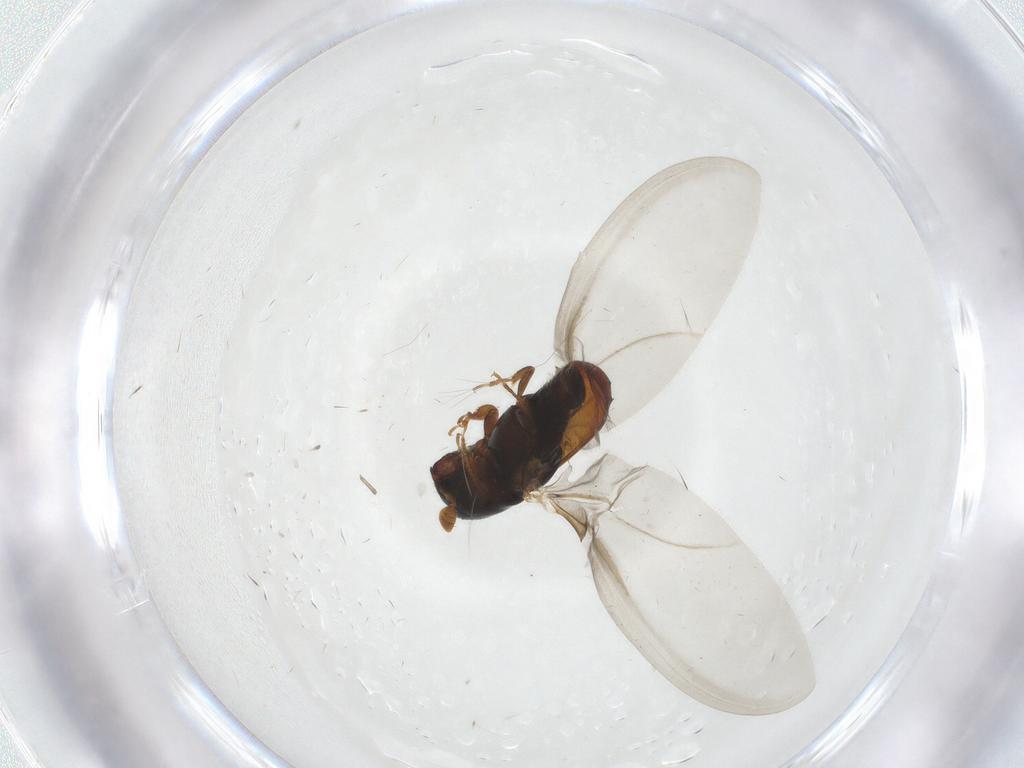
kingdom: Animalia
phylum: Arthropoda
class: Insecta
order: Coleoptera
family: Curculionidae
